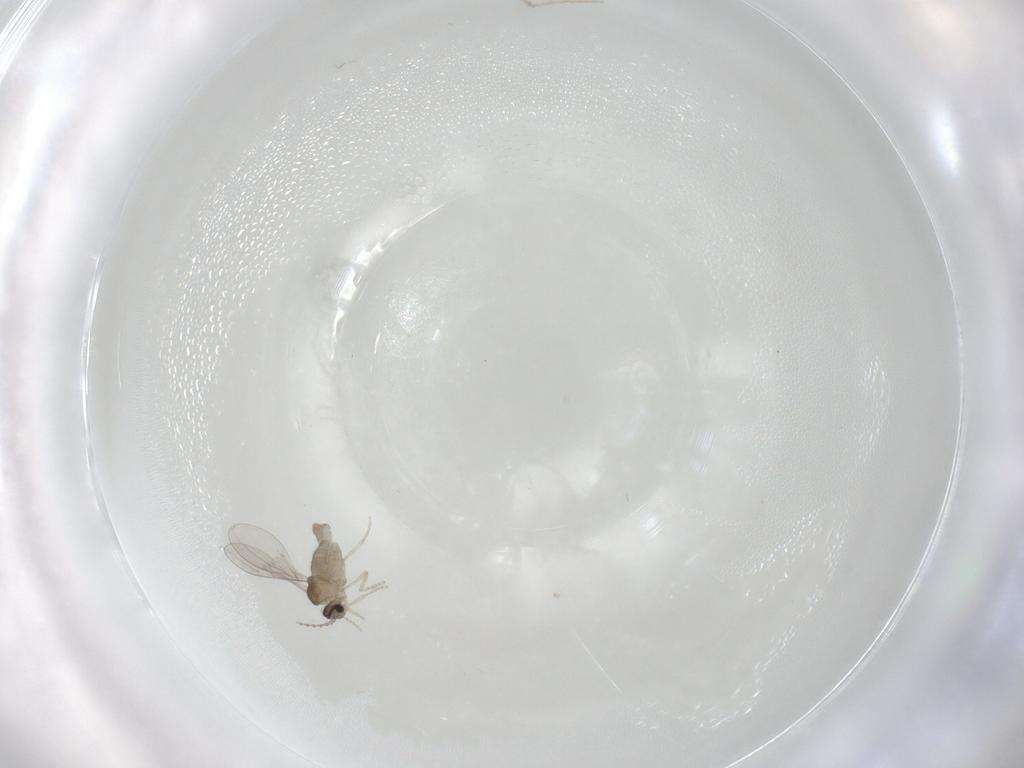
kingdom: Animalia
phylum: Arthropoda
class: Insecta
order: Diptera
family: Cecidomyiidae
